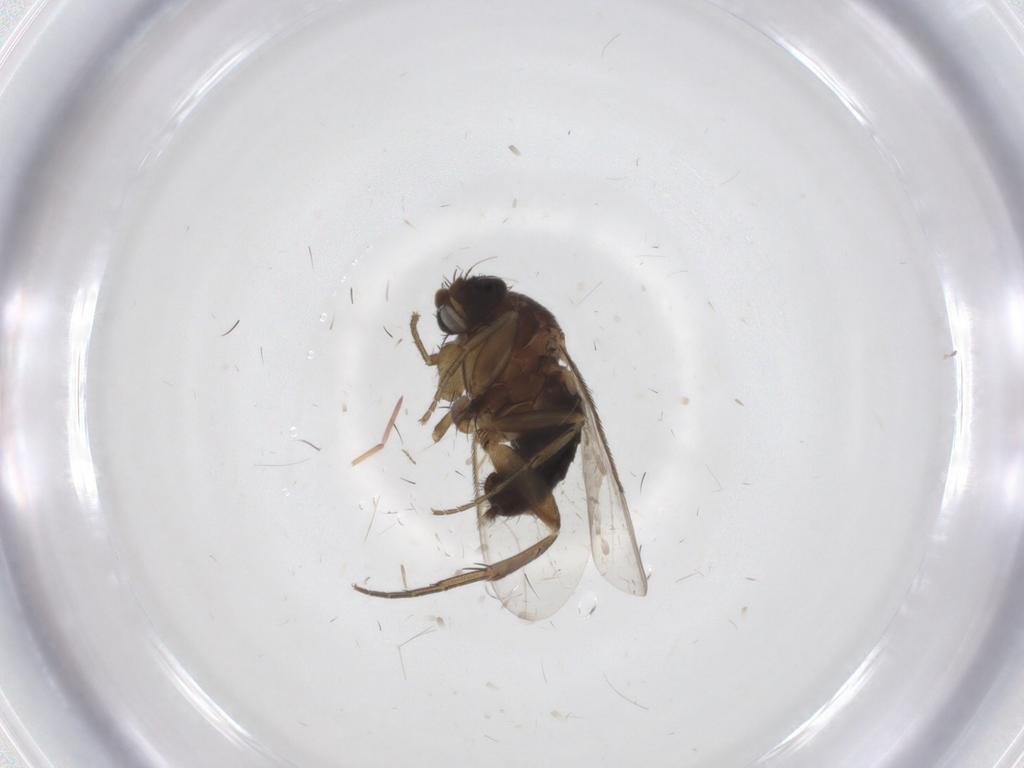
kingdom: Animalia
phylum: Arthropoda
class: Insecta
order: Diptera
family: Phoridae
